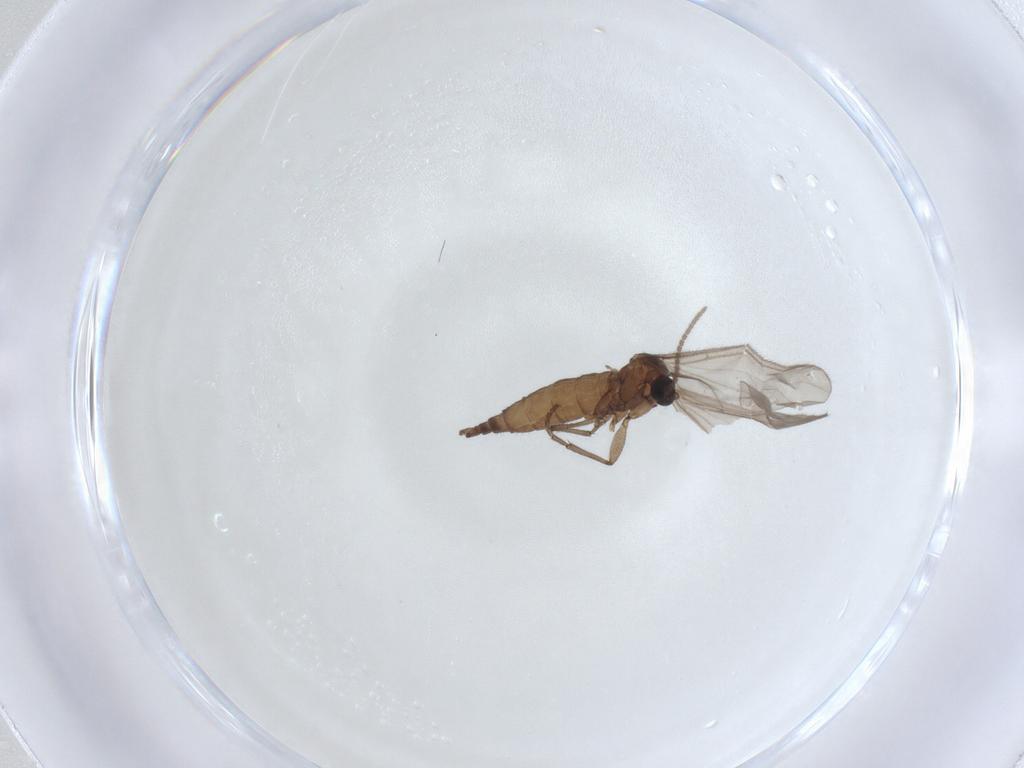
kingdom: Animalia
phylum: Arthropoda
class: Insecta
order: Diptera
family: Sciaridae
